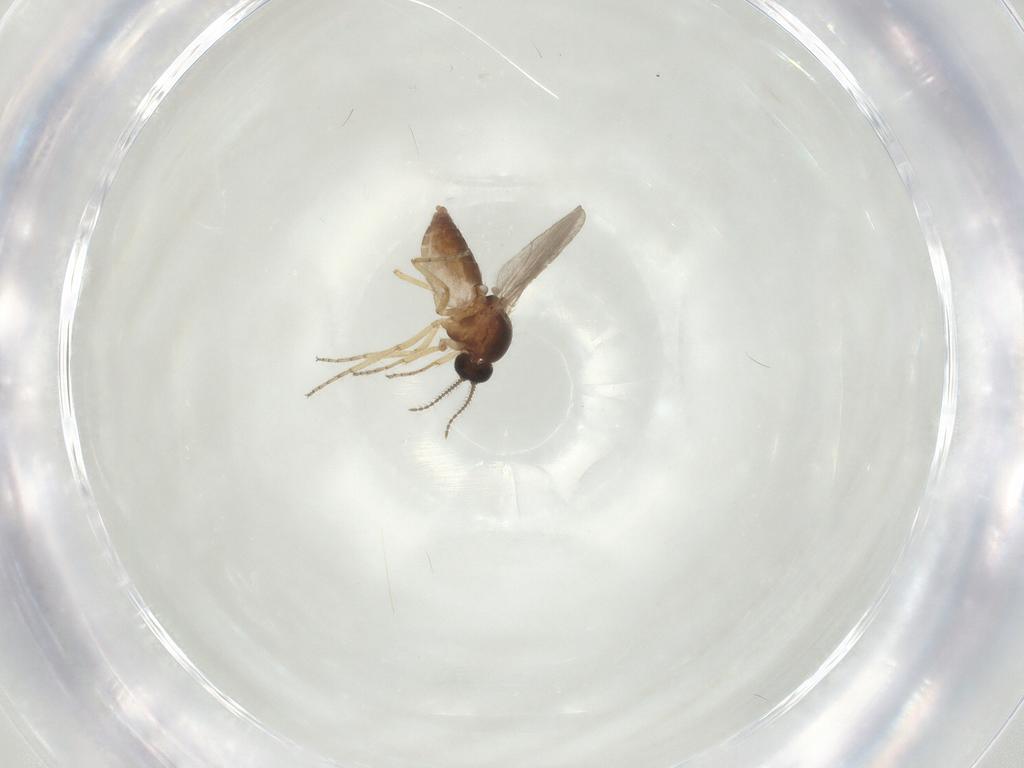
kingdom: Animalia
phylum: Arthropoda
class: Insecta
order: Diptera
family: Ceratopogonidae
